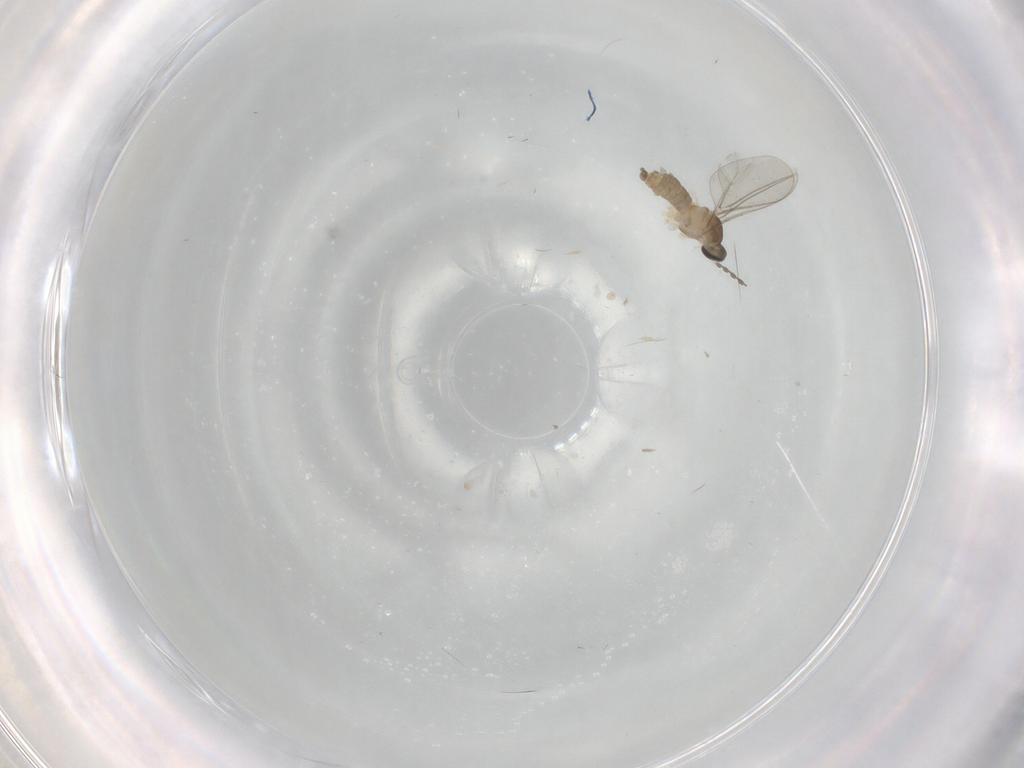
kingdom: Animalia
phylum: Arthropoda
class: Insecta
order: Diptera
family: Cecidomyiidae
